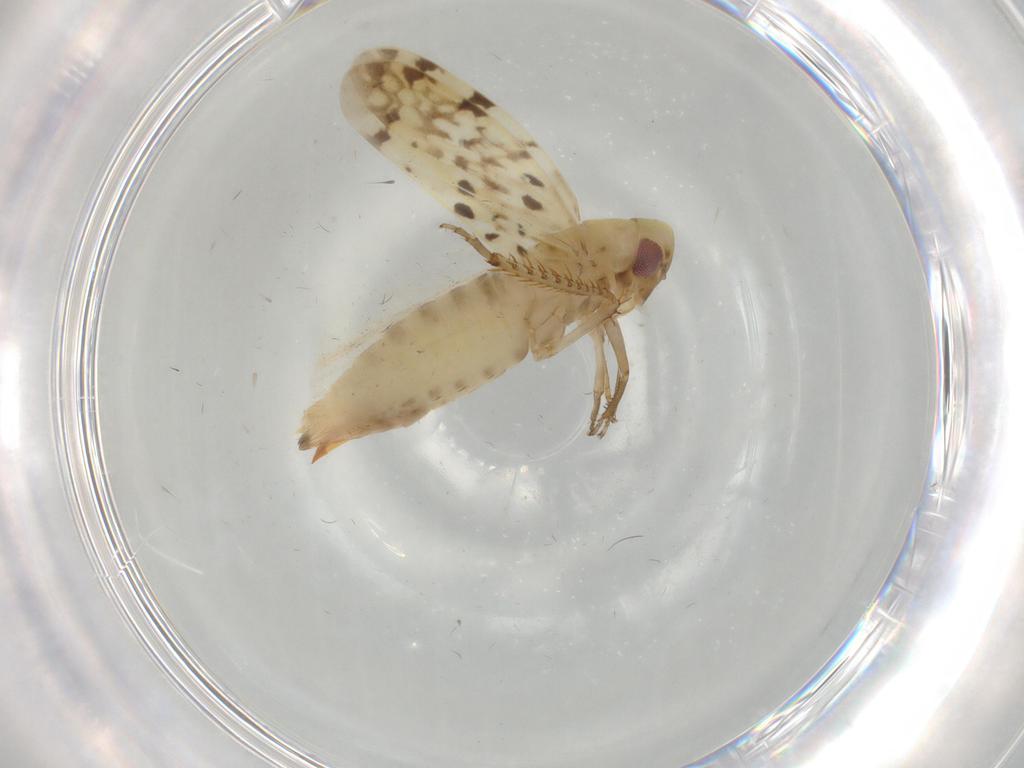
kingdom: Animalia
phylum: Arthropoda
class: Insecta
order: Hemiptera
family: Cicadellidae
